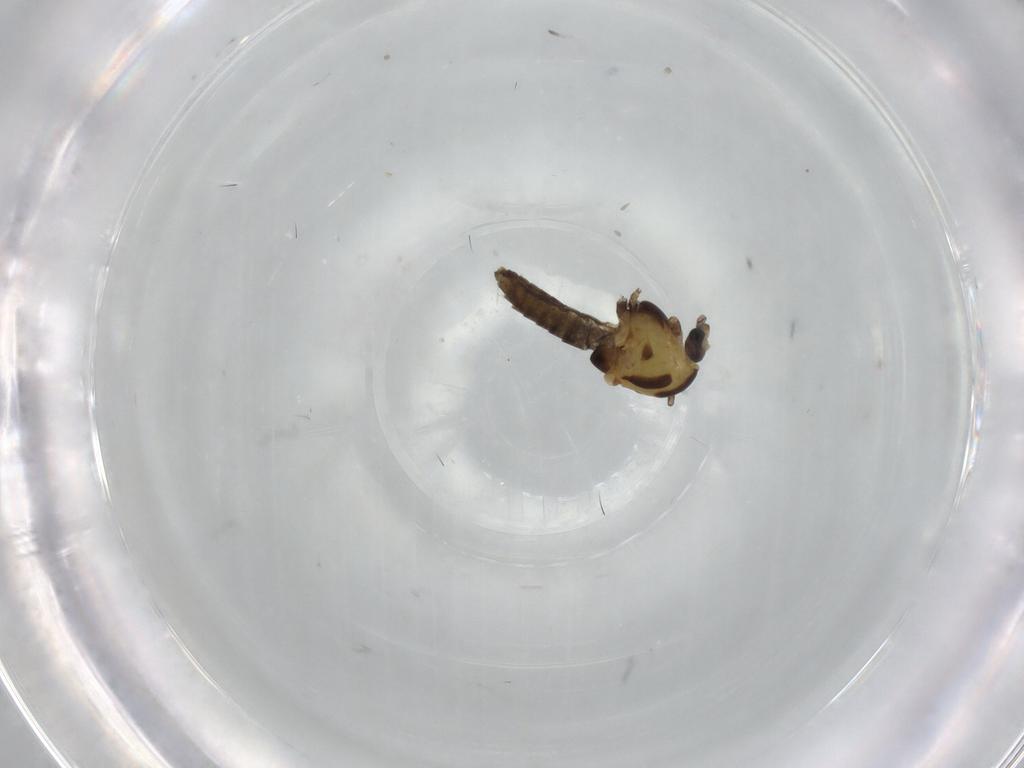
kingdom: Animalia
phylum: Arthropoda
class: Insecta
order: Diptera
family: Chironomidae
